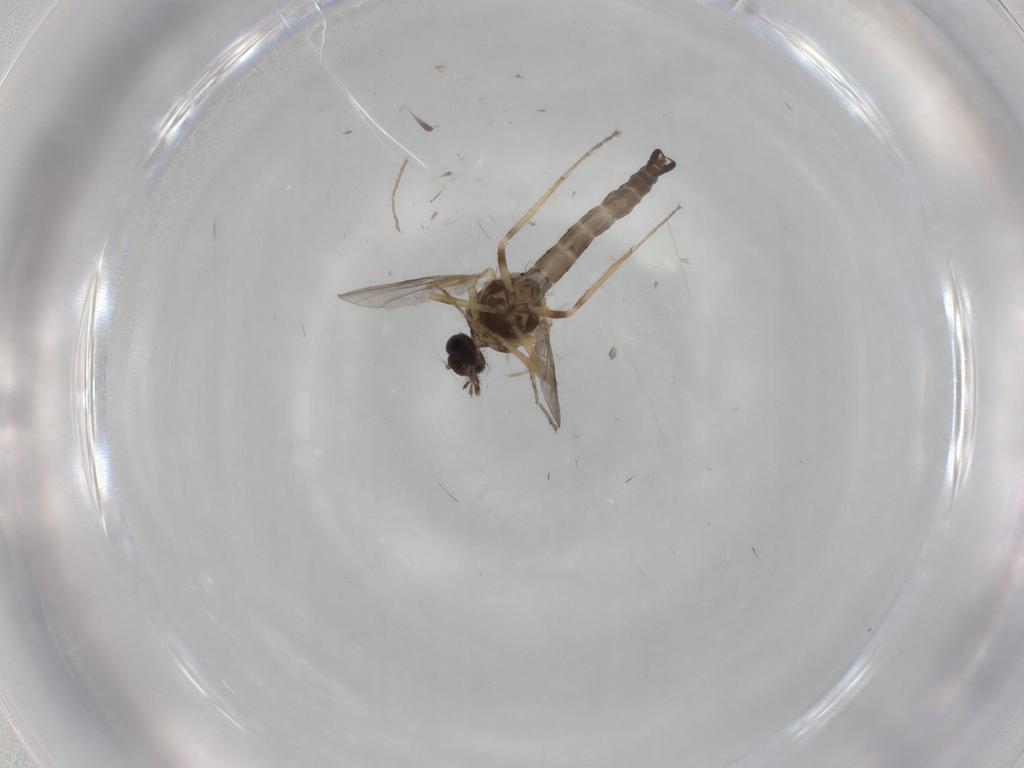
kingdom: Animalia
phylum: Arthropoda
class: Insecta
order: Diptera
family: Ceratopogonidae
